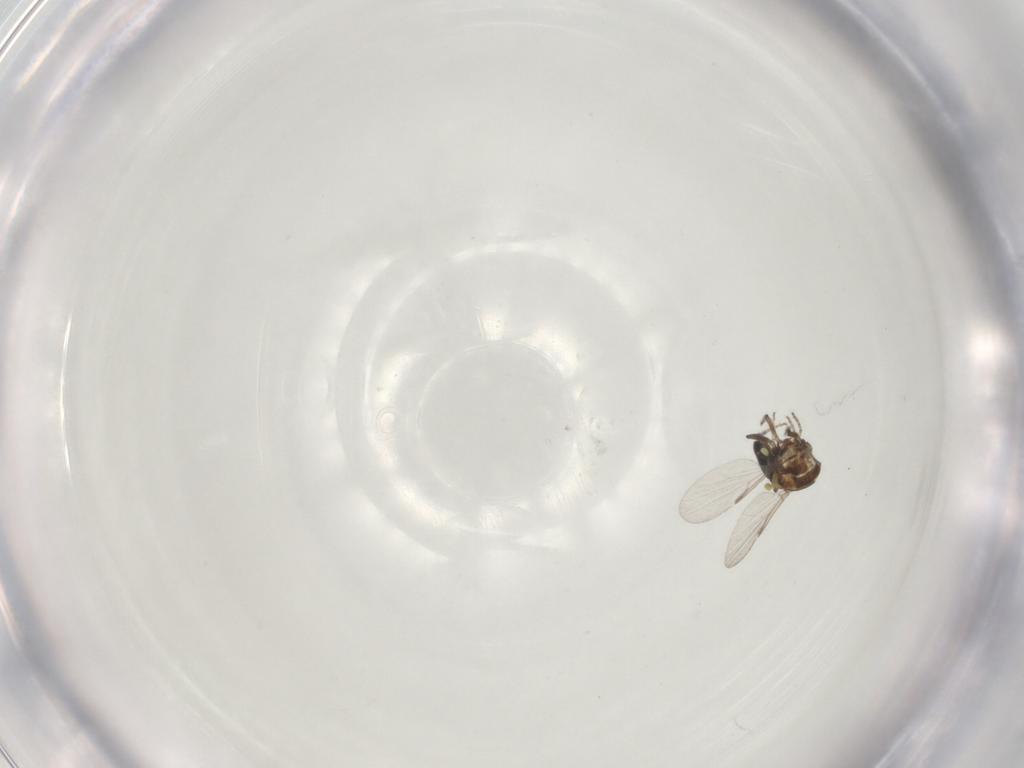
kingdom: Animalia
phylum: Arthropoda
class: Insecta
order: Diptera
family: Ceratopogonidae
